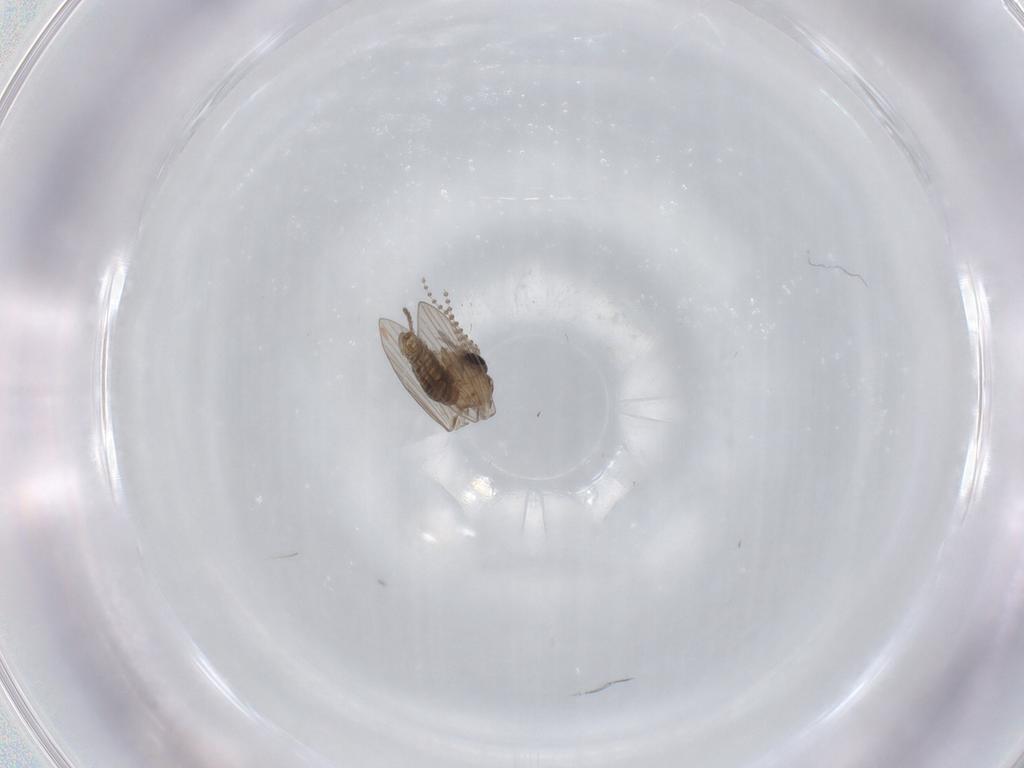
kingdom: Animalia
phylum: Arthropoda
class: Insecta
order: Diptera
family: Psychodidae
